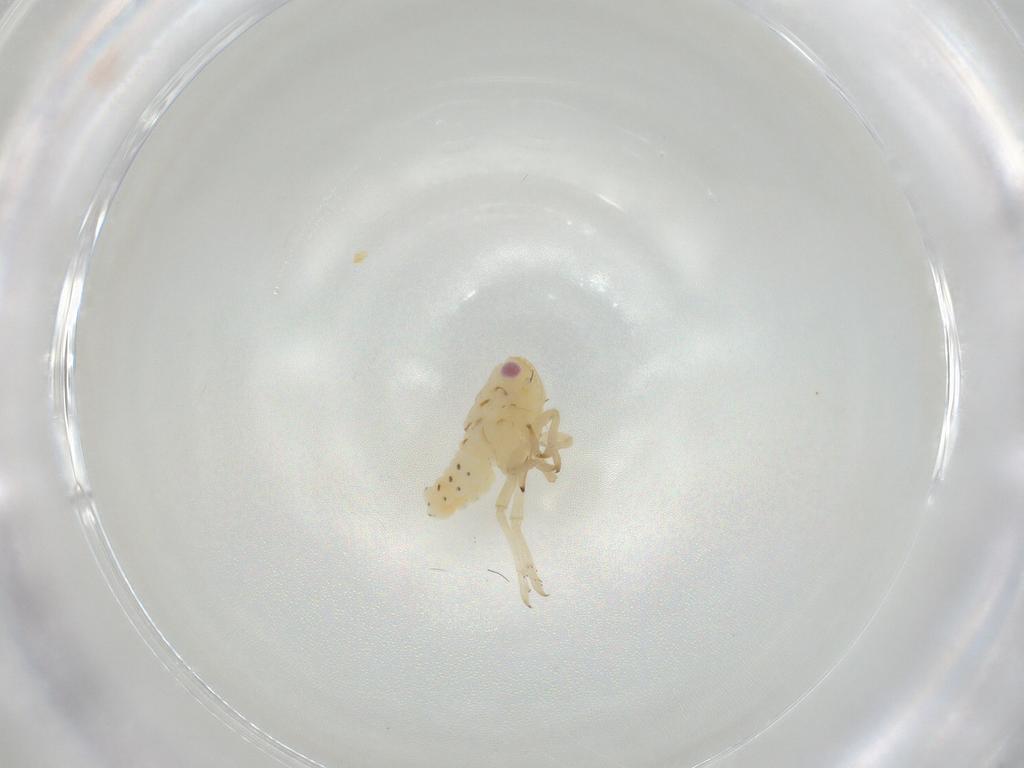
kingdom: Animalia
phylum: Arthropoda
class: Insecta
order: Hemiptera
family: Tropiduchidae
